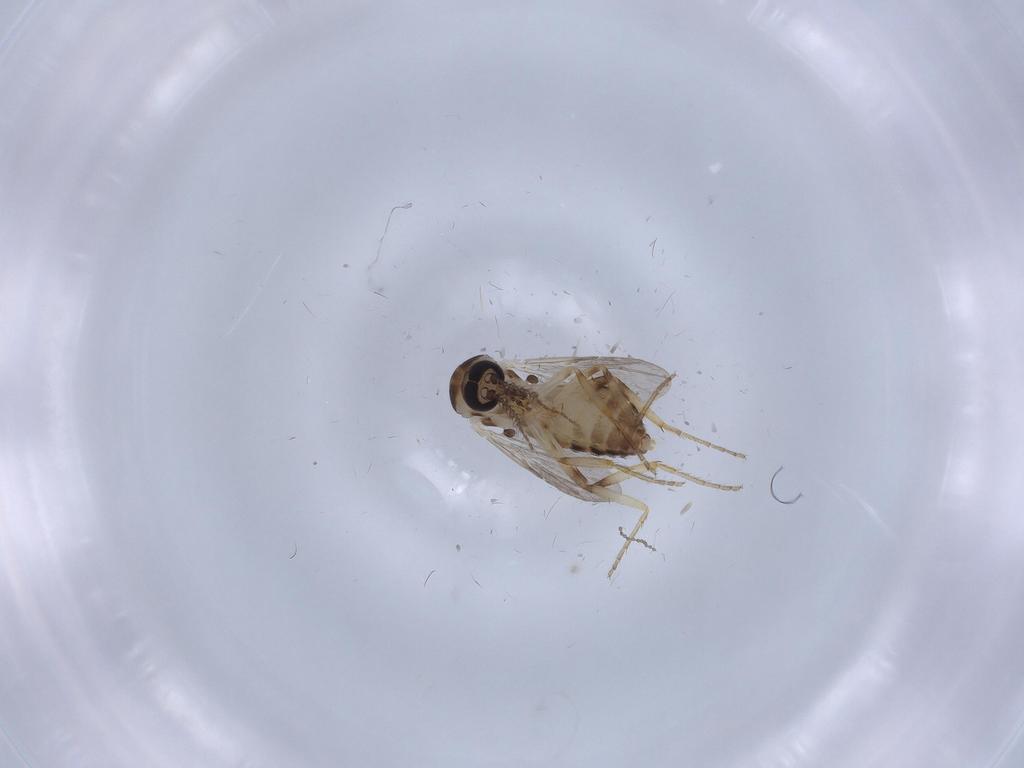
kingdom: Animalia
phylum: Arthropoda
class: Insecta
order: Diptera
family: Ceratopogonidae
